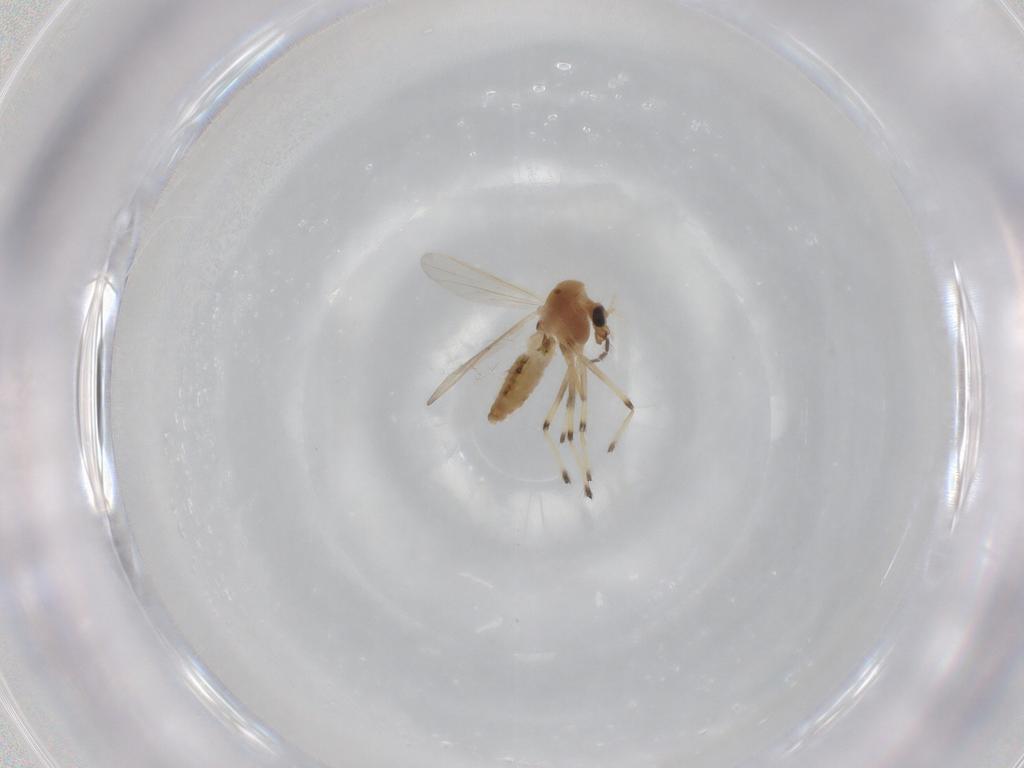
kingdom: Animalia
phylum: Arthropoda
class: Insecta
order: Diptera
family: Chironomidae
